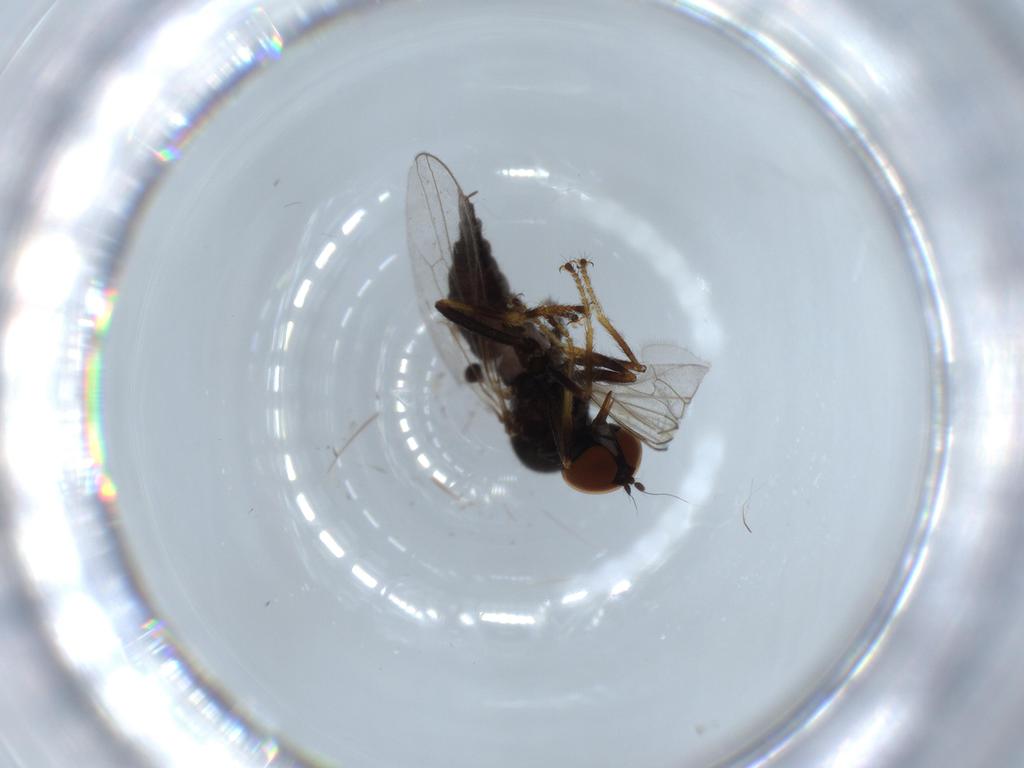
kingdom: Animalia
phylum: Arthropoda
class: Insecta
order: Diptera
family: Hybotidae
